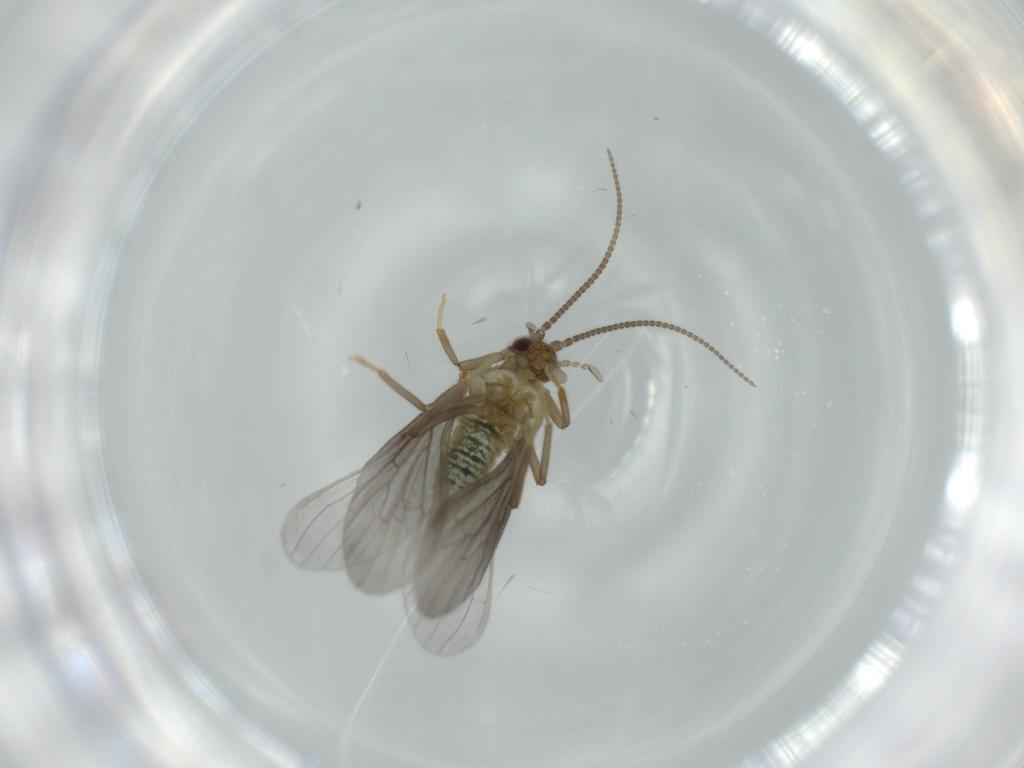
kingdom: Animalia
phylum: Arthropoda
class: Insecta
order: Neuroptera
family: Coniopterygidae
